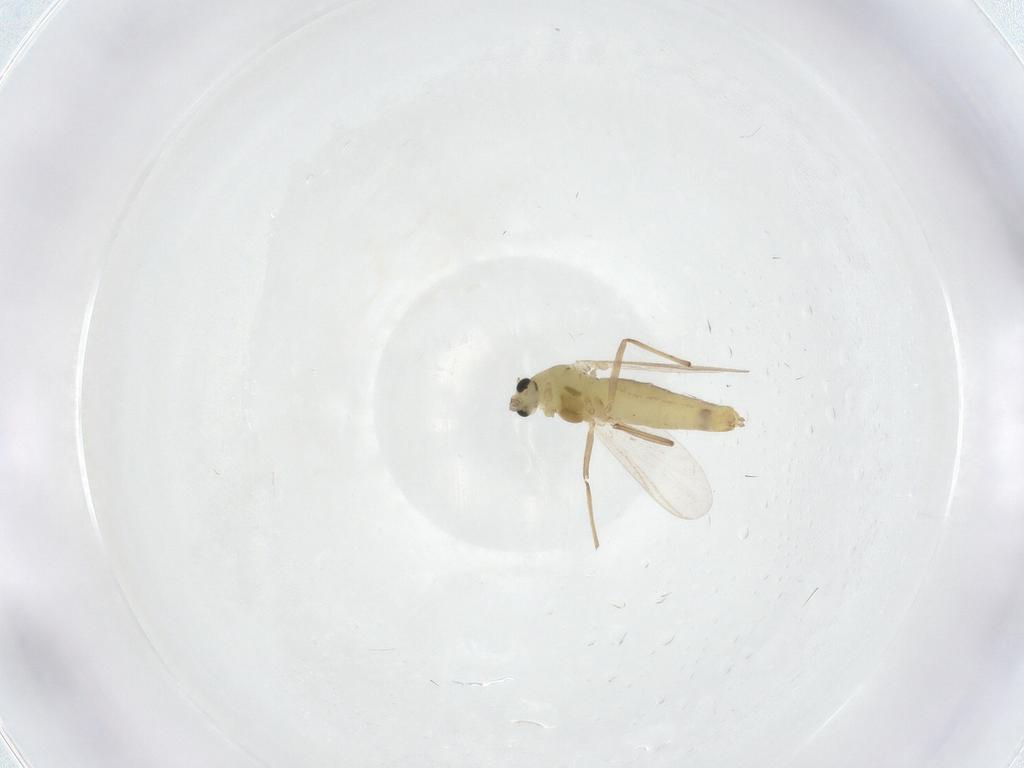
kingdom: Animalia
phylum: Arthropoda
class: Insecta
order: Diptera
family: Chironomidae
